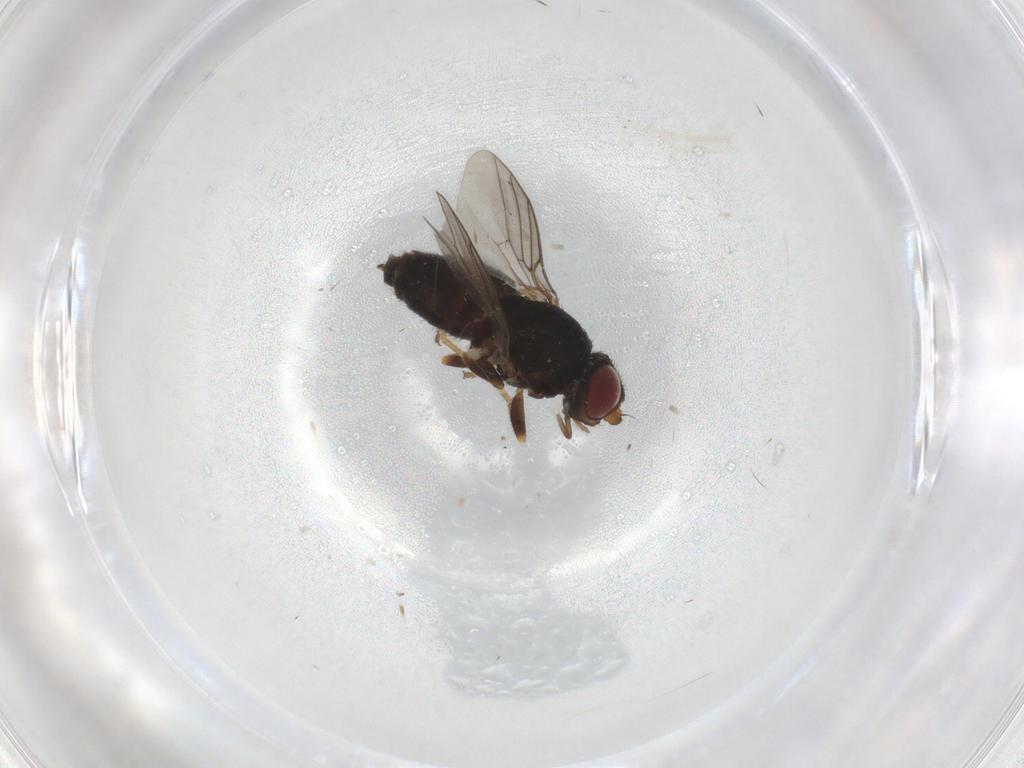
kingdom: Animalia
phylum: Arthropoda
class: Insecta
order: Diptera
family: Chloropidae
